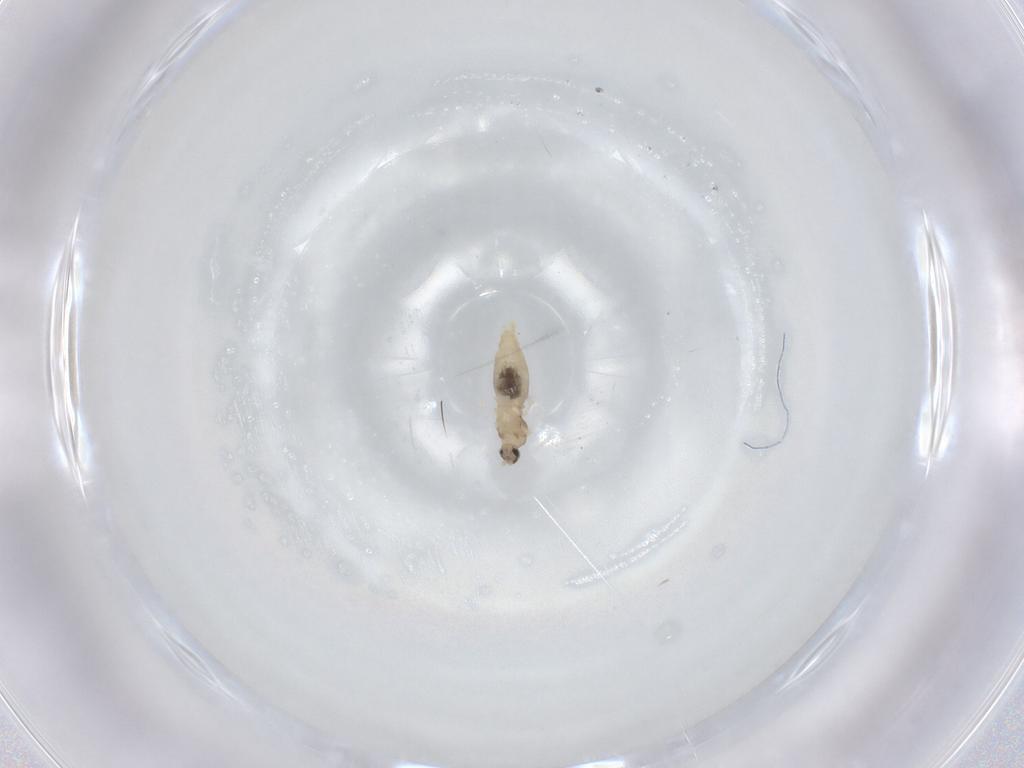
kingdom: Animalia
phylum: Arthropoda
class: Insecta
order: Diptera
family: Cecidomyiidae
